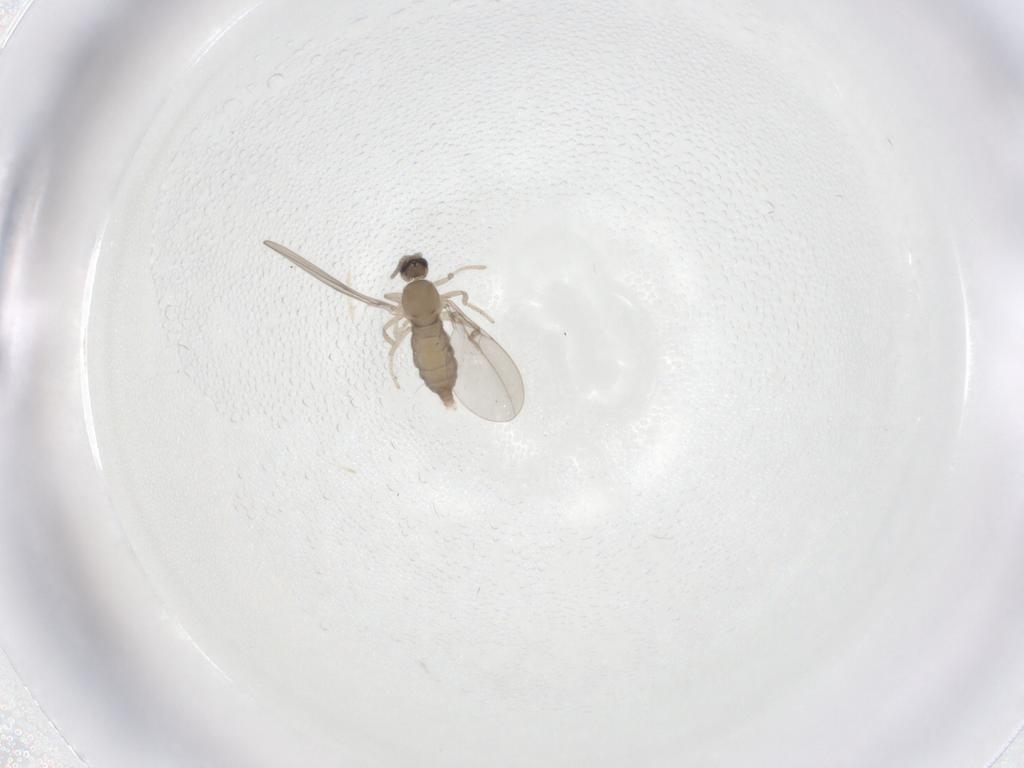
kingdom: Animalia
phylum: Arthropoda
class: Insecta
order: Diptera
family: Cecidomyiidae
